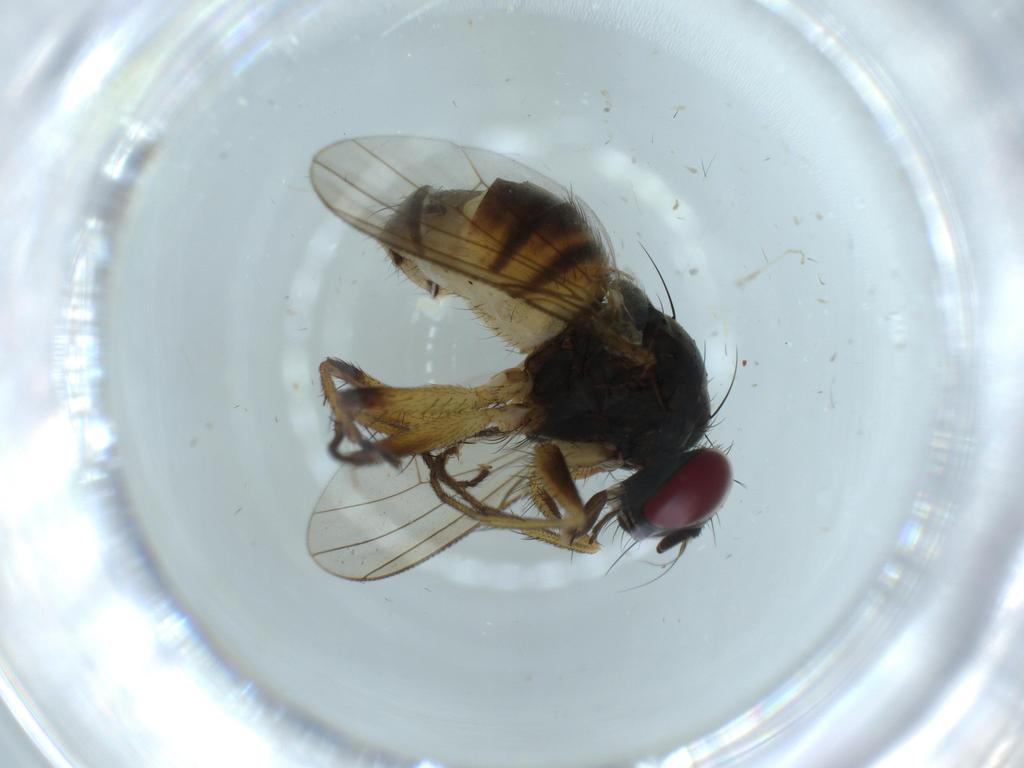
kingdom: Animalia
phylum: Arthropoda
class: Insecta
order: Diptera
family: Muscidae
